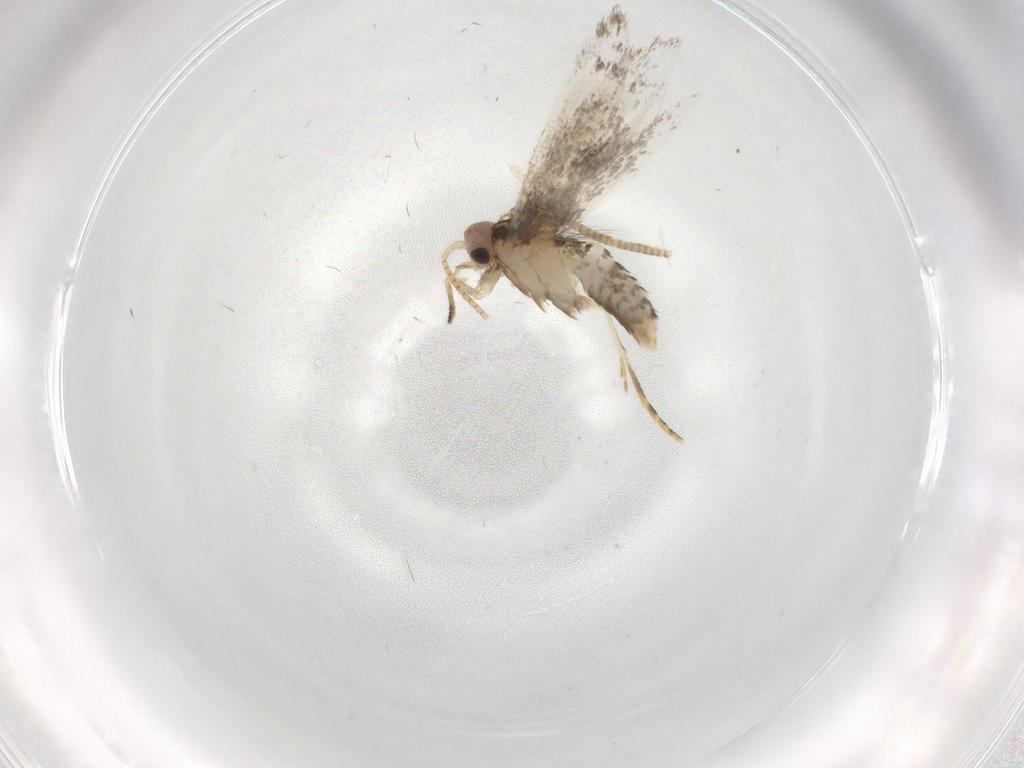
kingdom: Animalia
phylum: Arthropoda
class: Insecta
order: Lepidoptera
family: Tineidae
